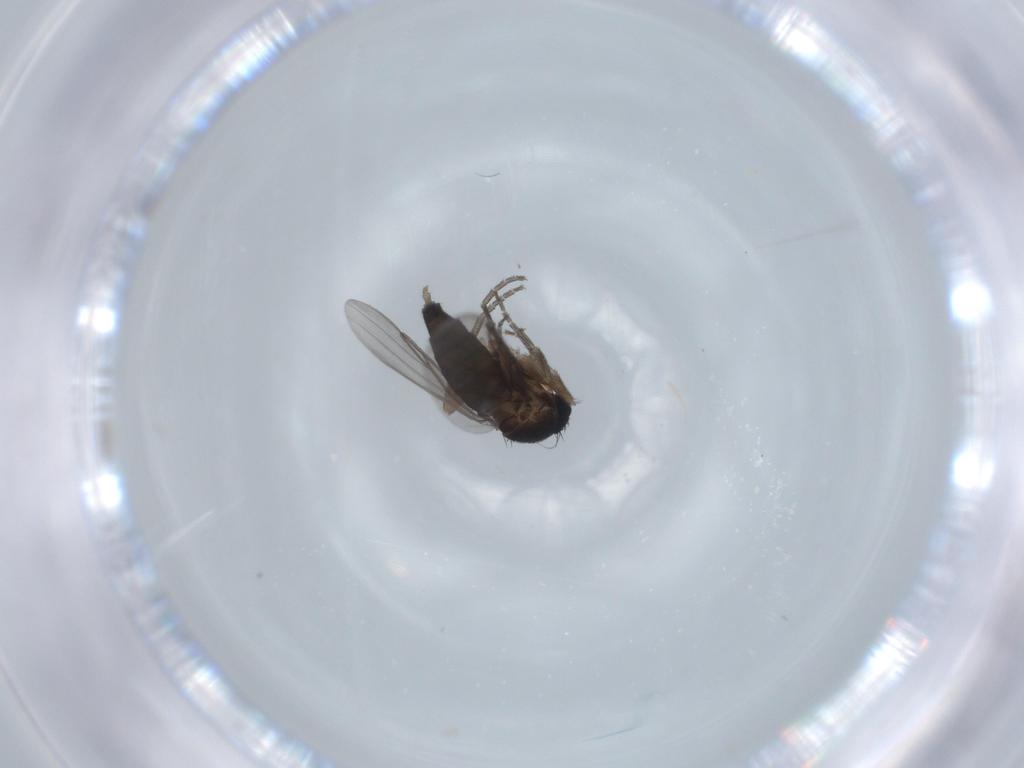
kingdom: Animalia
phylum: Arthropoda
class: Insecta
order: Diptera
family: Phoridae
